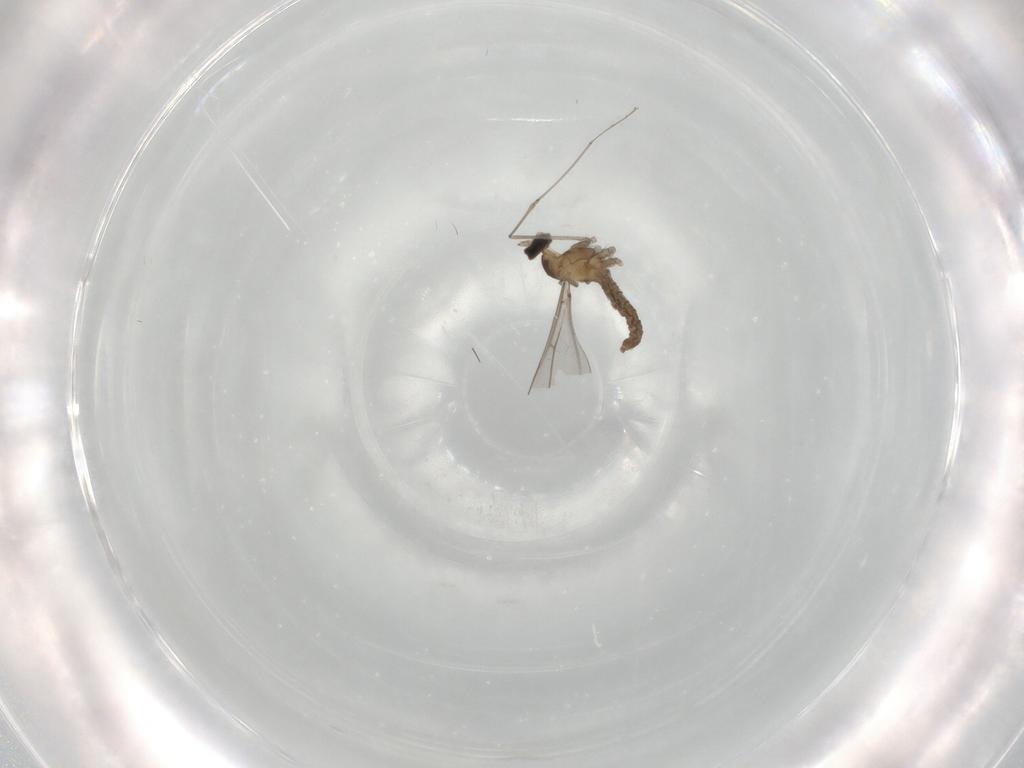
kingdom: Animalia
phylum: Arthropoda
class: Insecta
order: Diptera
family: Cecidomyiidae
